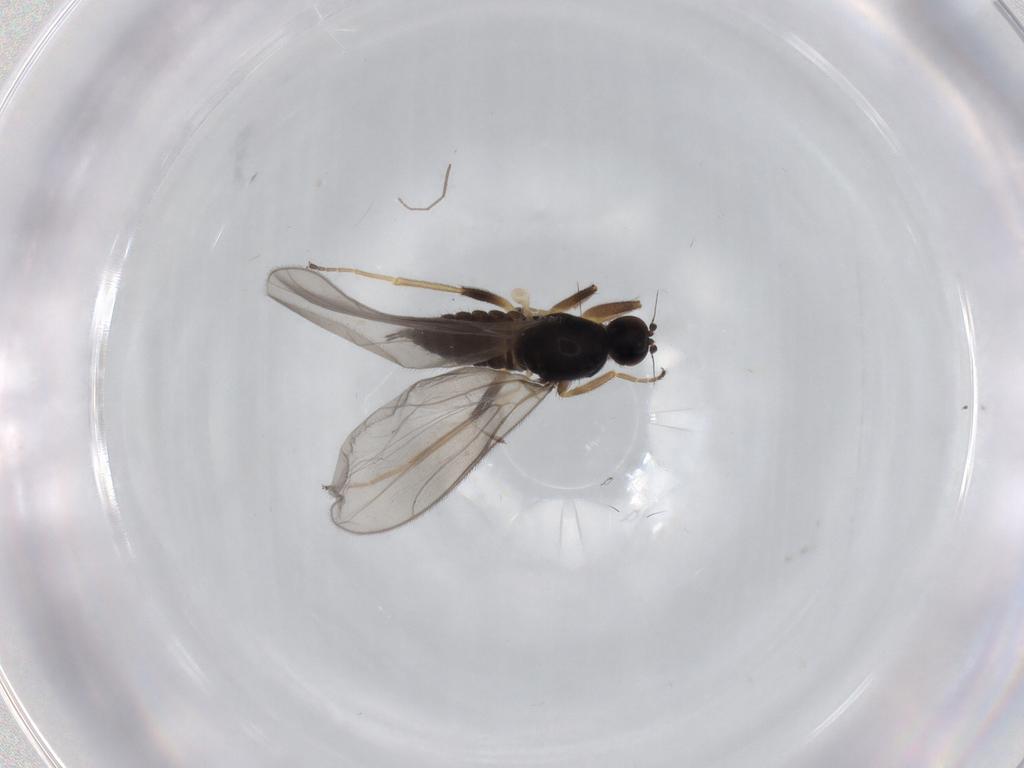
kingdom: Animalia
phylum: Arthropoda
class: Insecta
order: Diptera
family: Hybotidae
